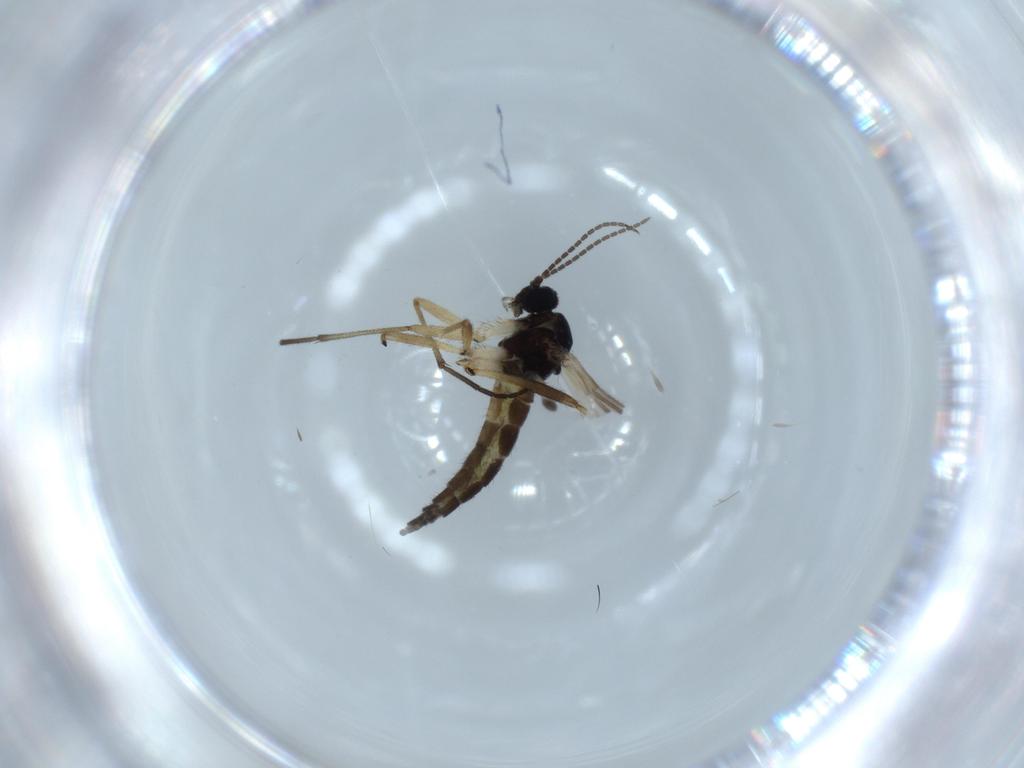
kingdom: Animalia
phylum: Arthropoda
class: Insecta
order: Diptera
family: Sciaridae
